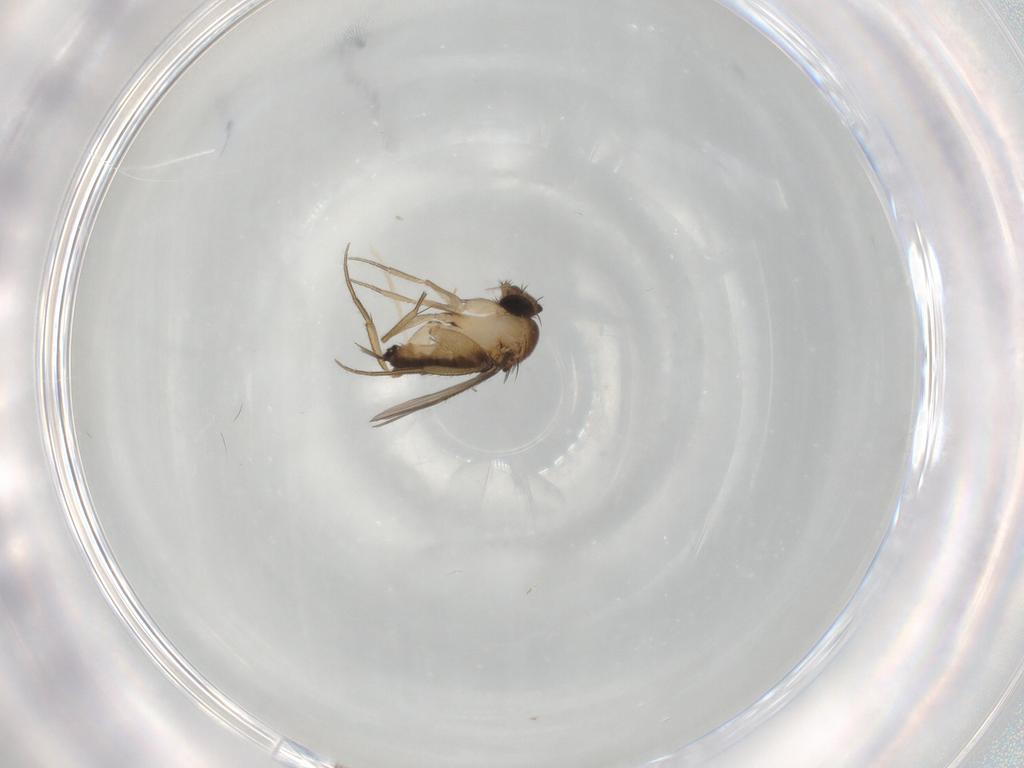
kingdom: Animalia
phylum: Arthropoda
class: Insecta
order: Diptera
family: Phoridae
